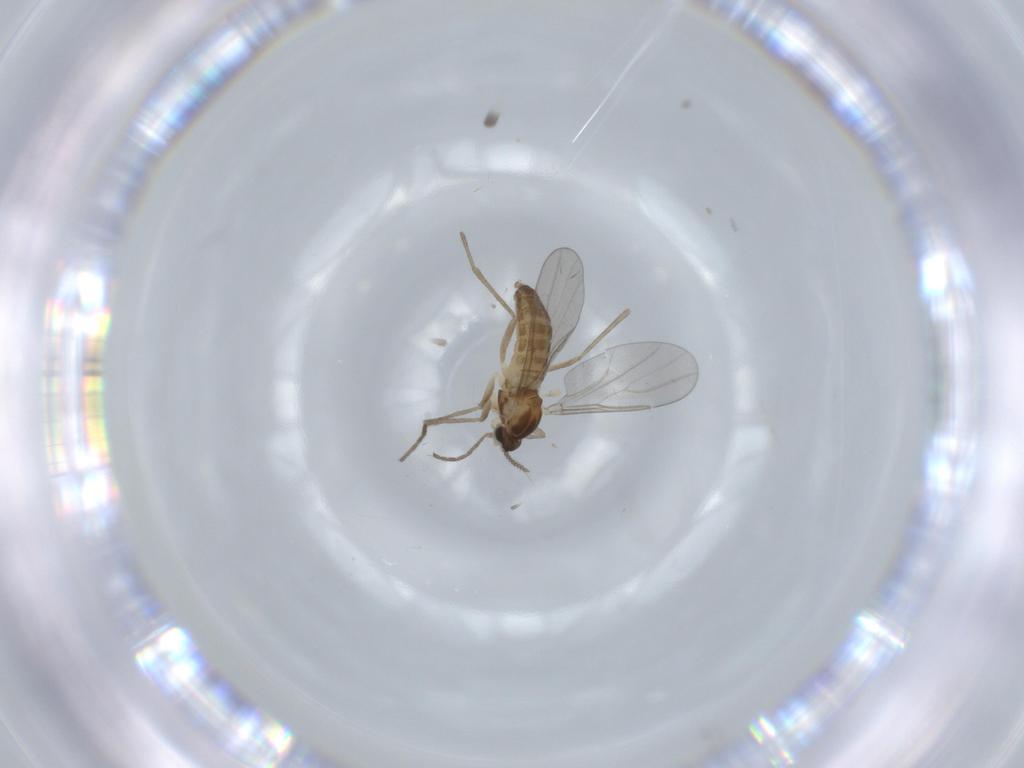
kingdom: Animalia
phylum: Arthropoda
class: Insecta
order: Diptera
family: Cecidomyiidae
